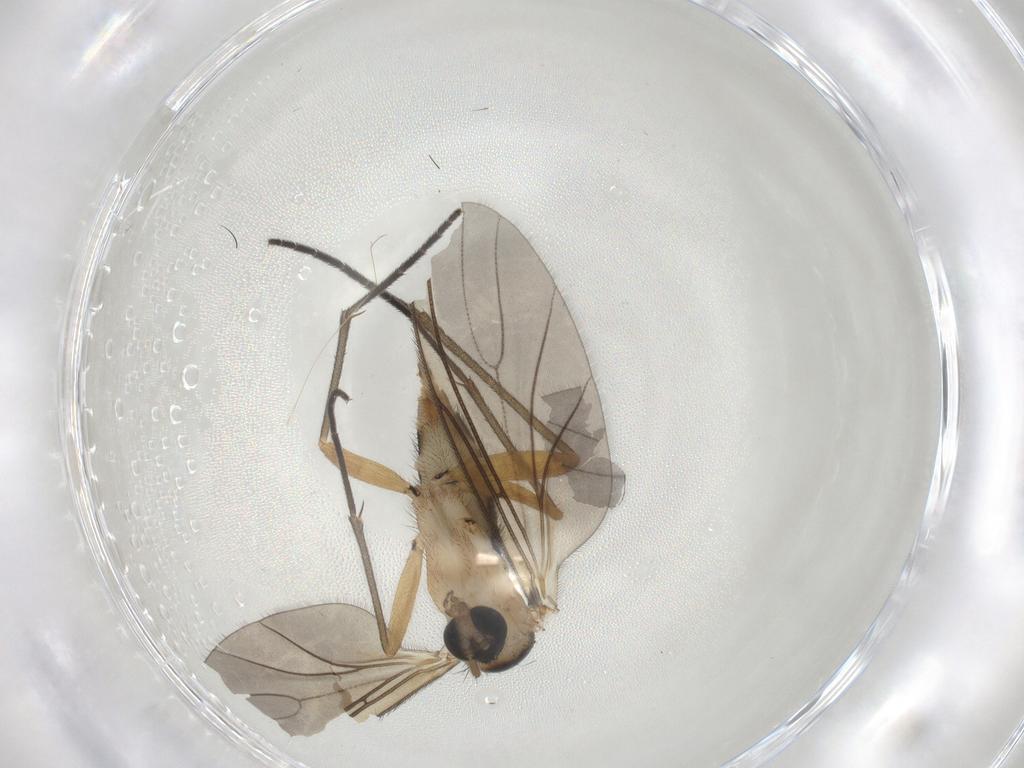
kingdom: Animalia
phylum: Arthropoda
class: Insecta
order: Diptera
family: Sciaridae
